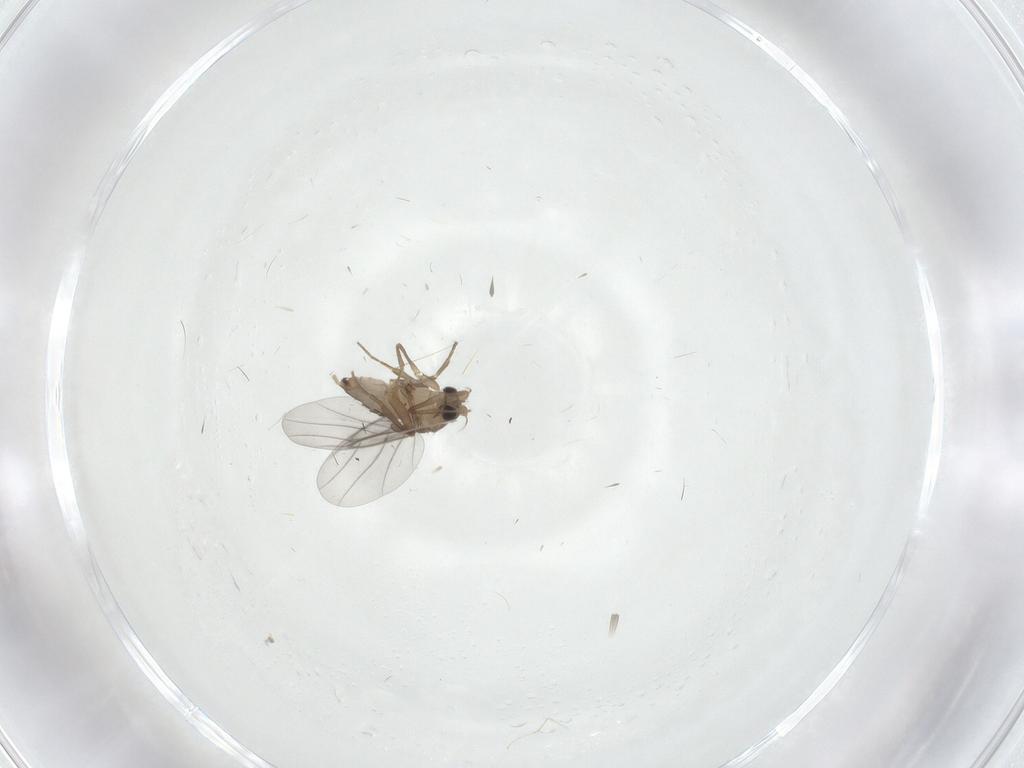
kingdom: Animalia
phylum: Arthropoda
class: Insecta
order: Diptera
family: Cecidomyiidae
